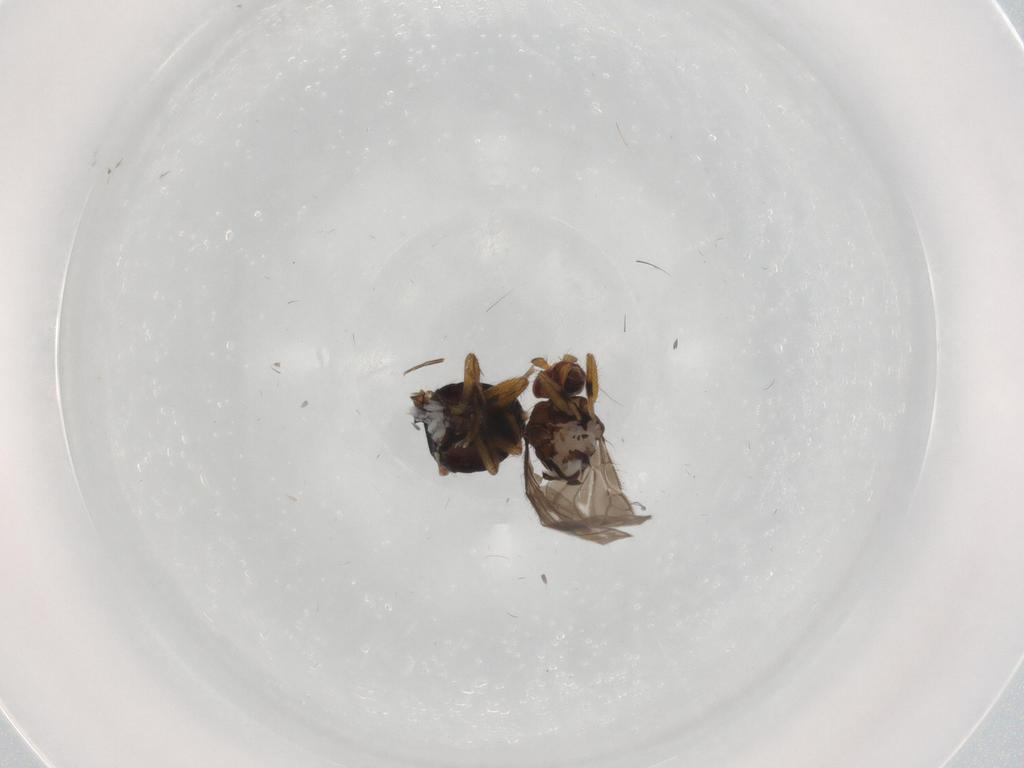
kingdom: Animalia
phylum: Arthropoda
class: Insecta
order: Diptera
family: Sphaeroceridae
